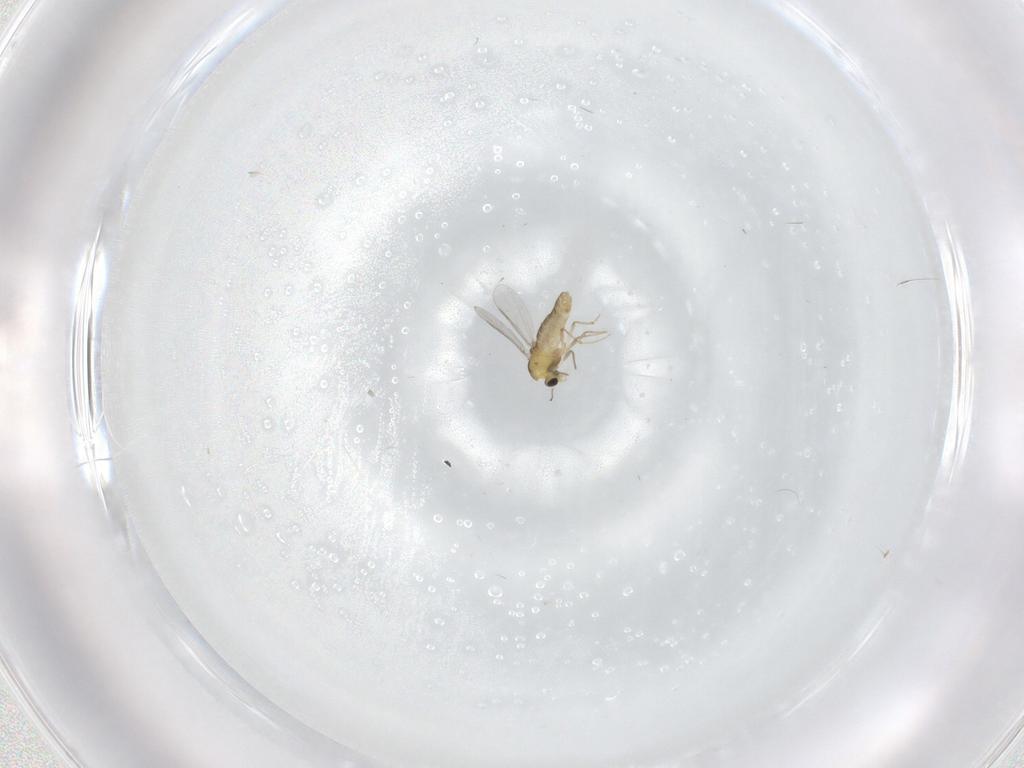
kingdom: Animalia
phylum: Arthropoda
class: Insecta
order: Diptera
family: Chironomidae
